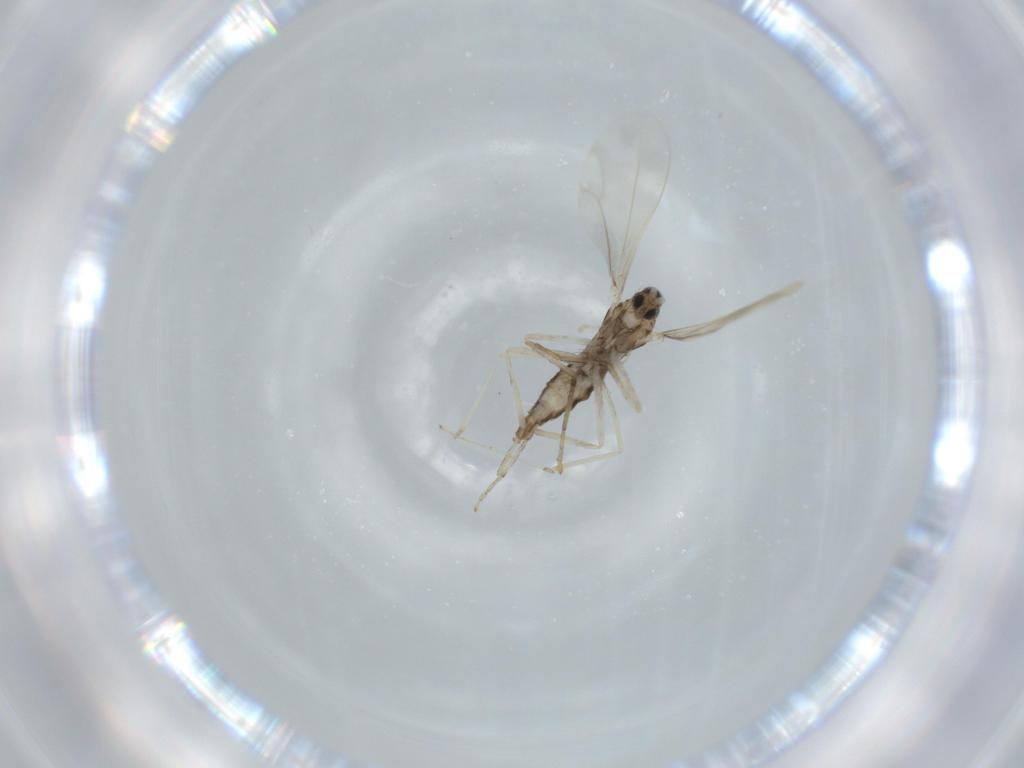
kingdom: Animalia
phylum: Arthropoda
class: Insecta
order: Diptera
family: Cecidomyiidae
